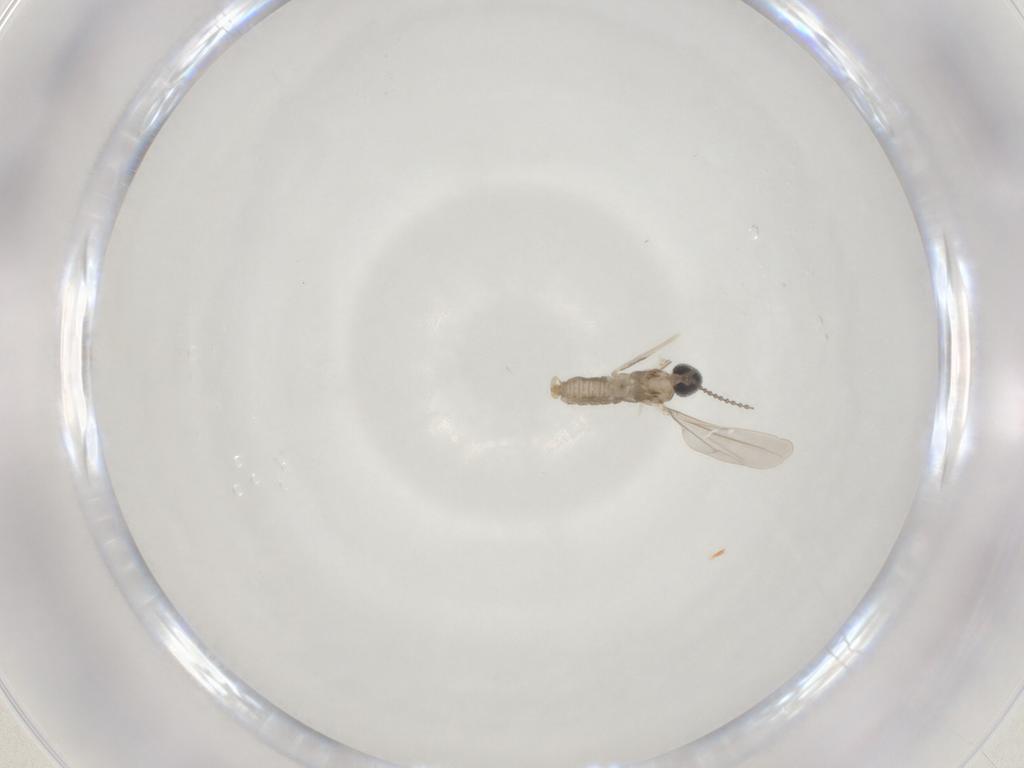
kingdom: Animalia
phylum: Arthropoda
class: Insecta
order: Diptera
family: Cecidomyiidae
